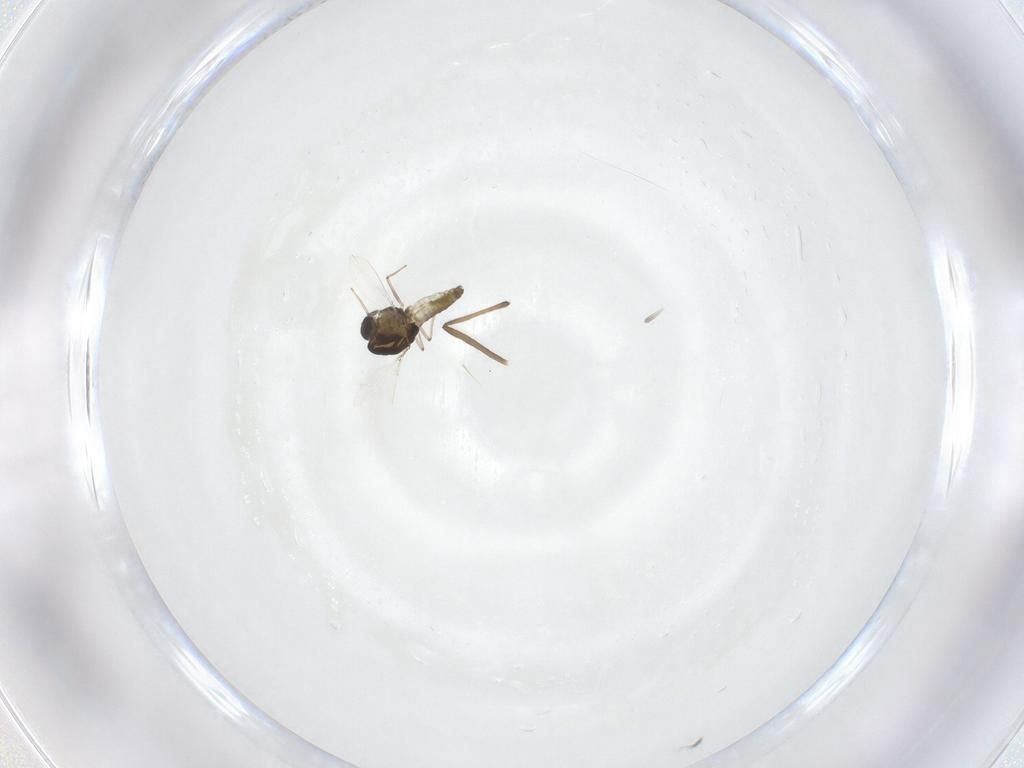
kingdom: Animalia
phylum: Arthropoda
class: Insecta
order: Diptera
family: Chironomidae
